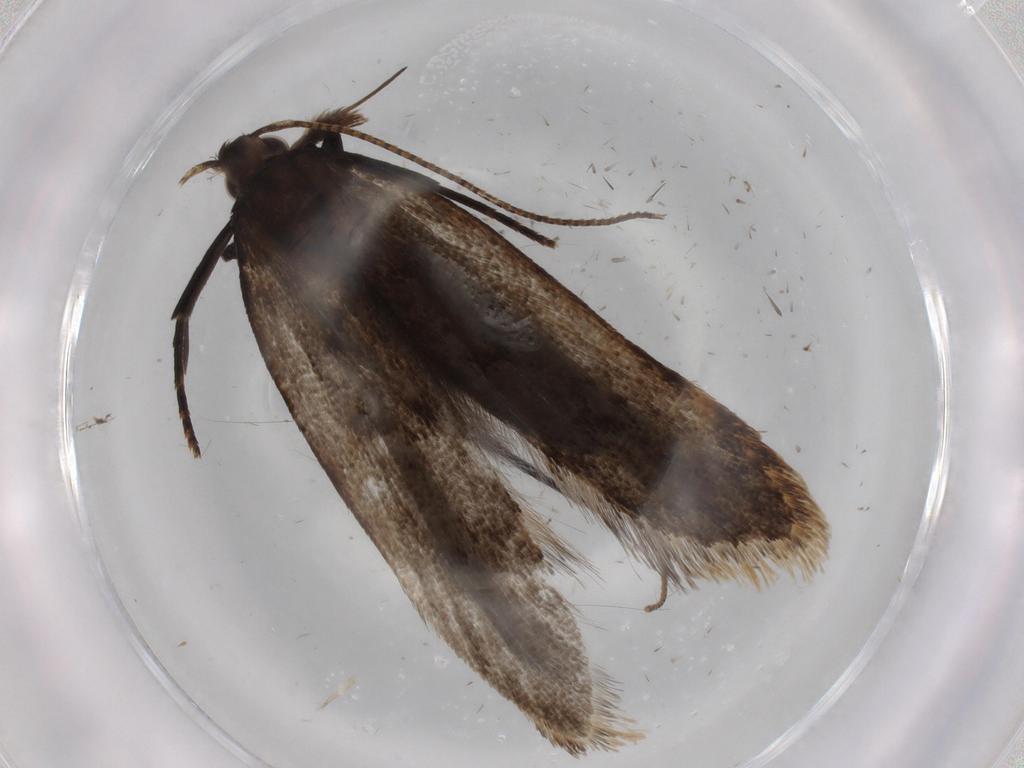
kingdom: Animalia
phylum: Arthropoda
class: Insecta
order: Lepidoptera
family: Gelechiidae
